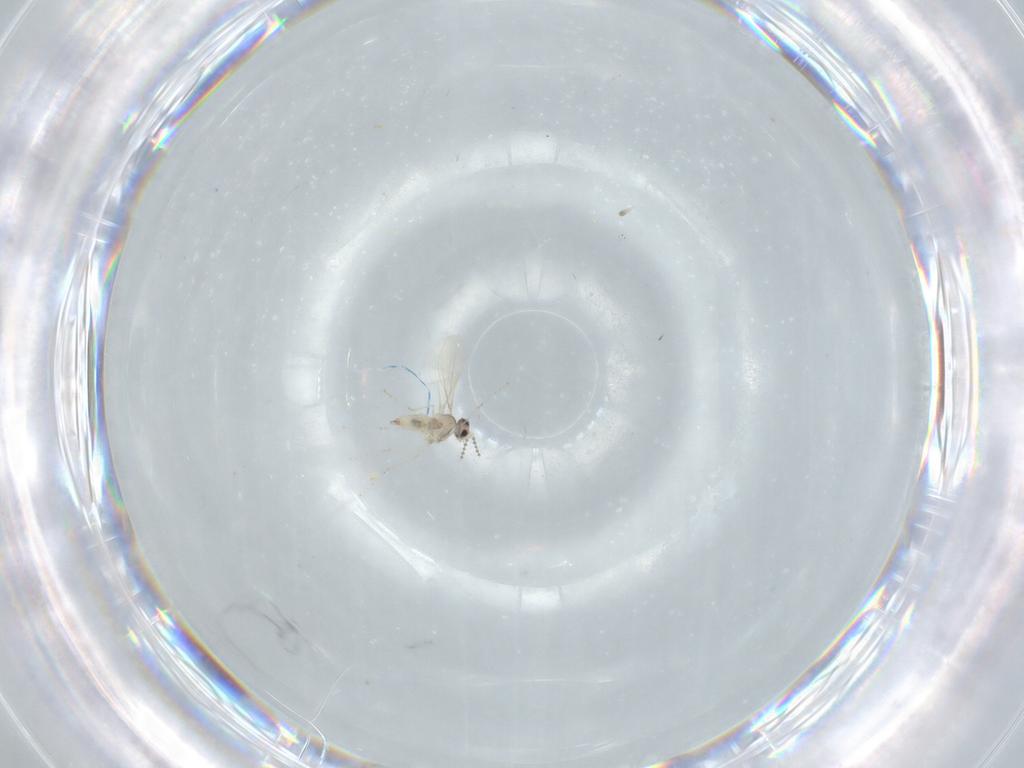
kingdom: Animalia
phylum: Arthropoda
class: Insecta
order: Diptera
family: Cecidomyiidae
